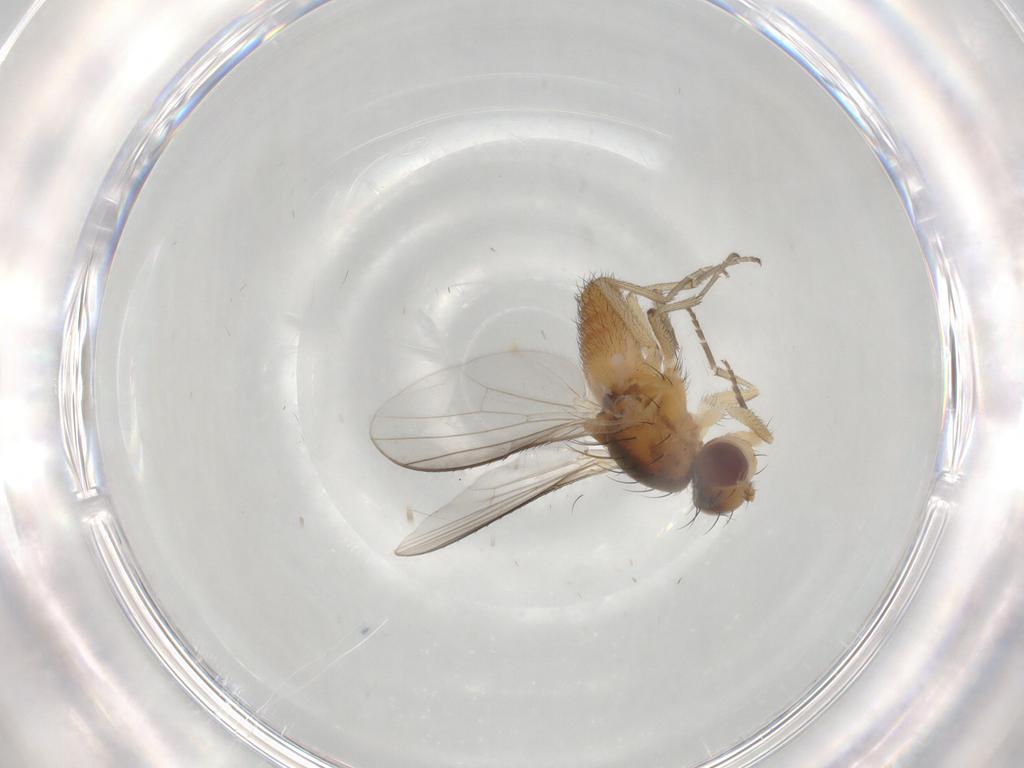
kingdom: Animalia
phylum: Arthropoda
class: Insecta
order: Diptera
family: Heleomyzidae
